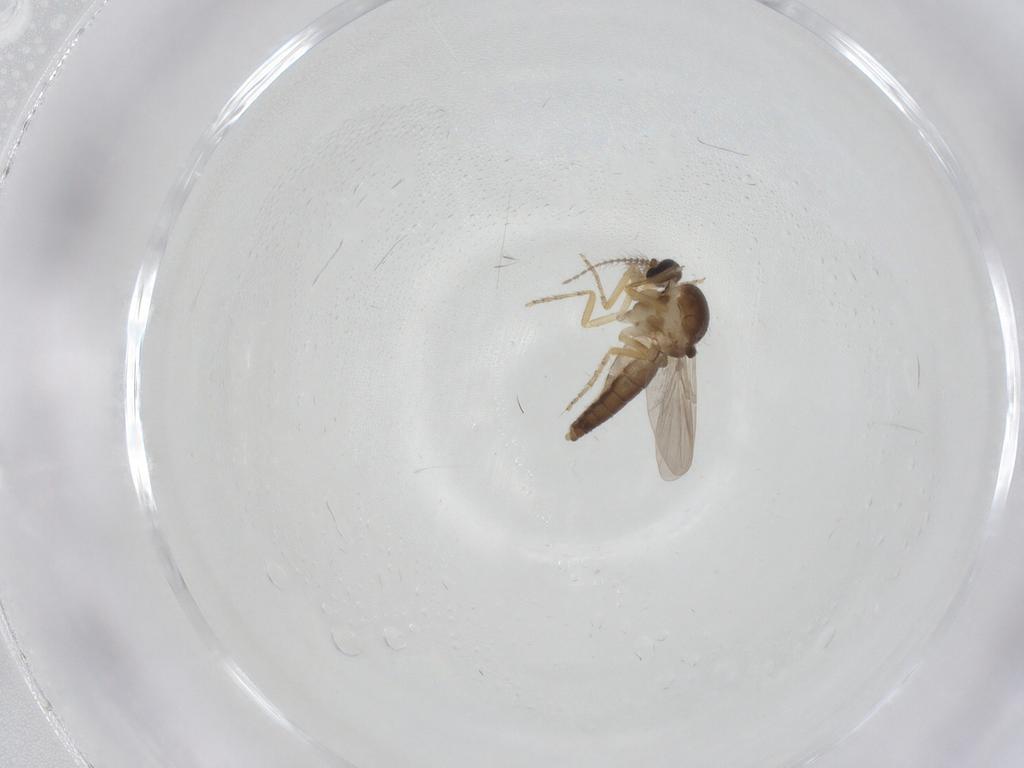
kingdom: Animalia
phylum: Arthropoda
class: Insecta
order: Diptera
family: Ceratopogonidae
